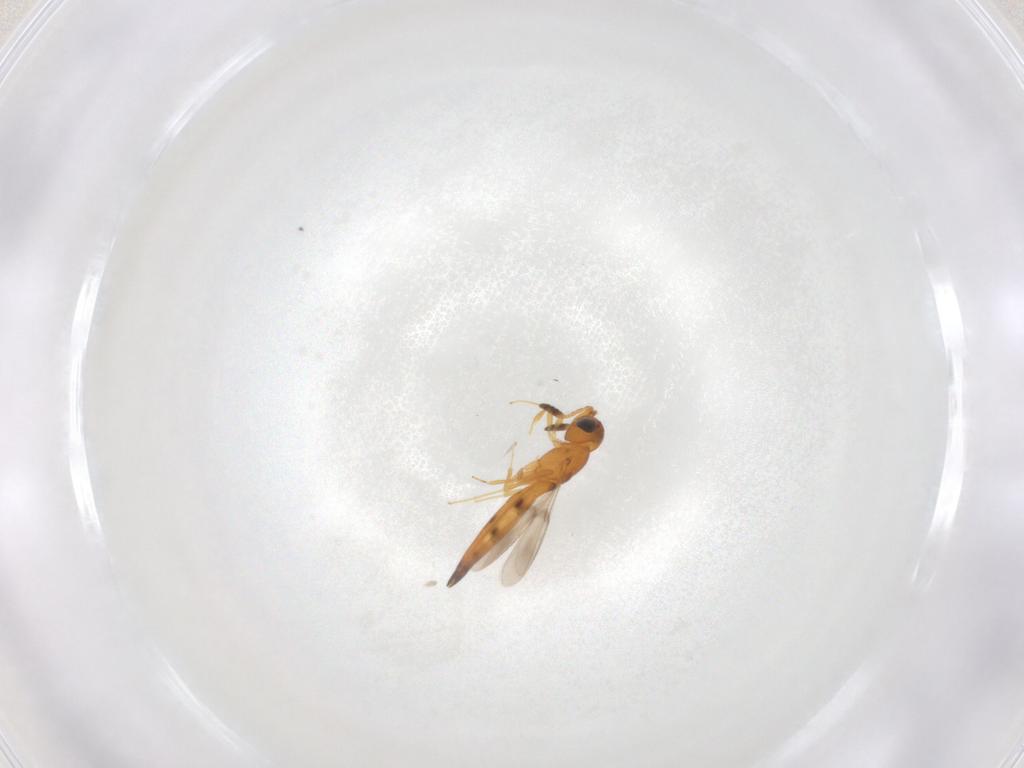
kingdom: Animalia
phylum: Arthropoda
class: Insecta
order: Hymenoptera
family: Scelionidae
